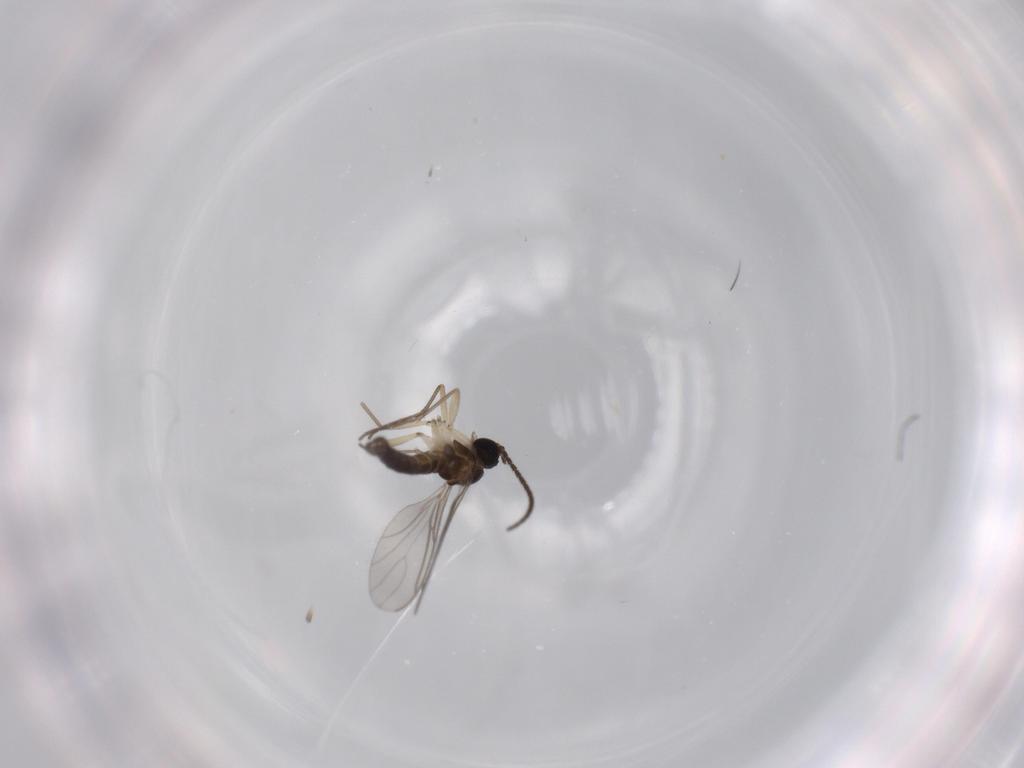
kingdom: Animalia
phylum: Arthropoda
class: Insecta
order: Diptera
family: Sciaridae
